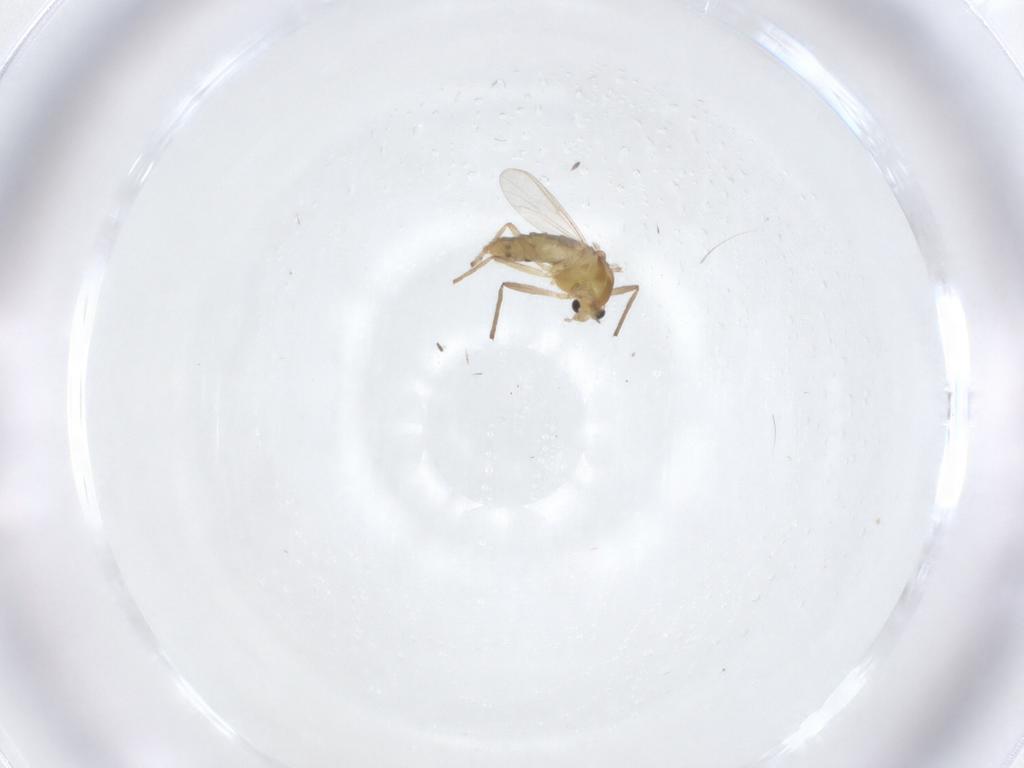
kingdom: Animalia
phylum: Arthropoda
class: Insecta
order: Diptera
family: Chironomidae
